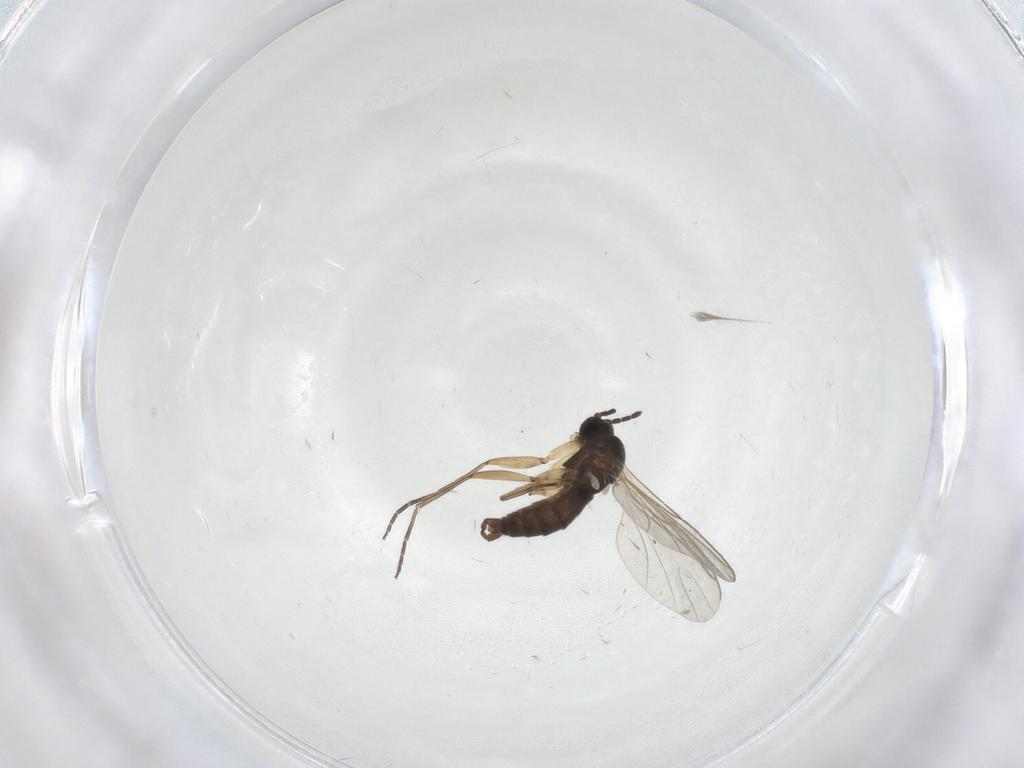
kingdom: Animalia
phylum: Arthropoda
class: Insecta
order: Diptera
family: Sciaridae
